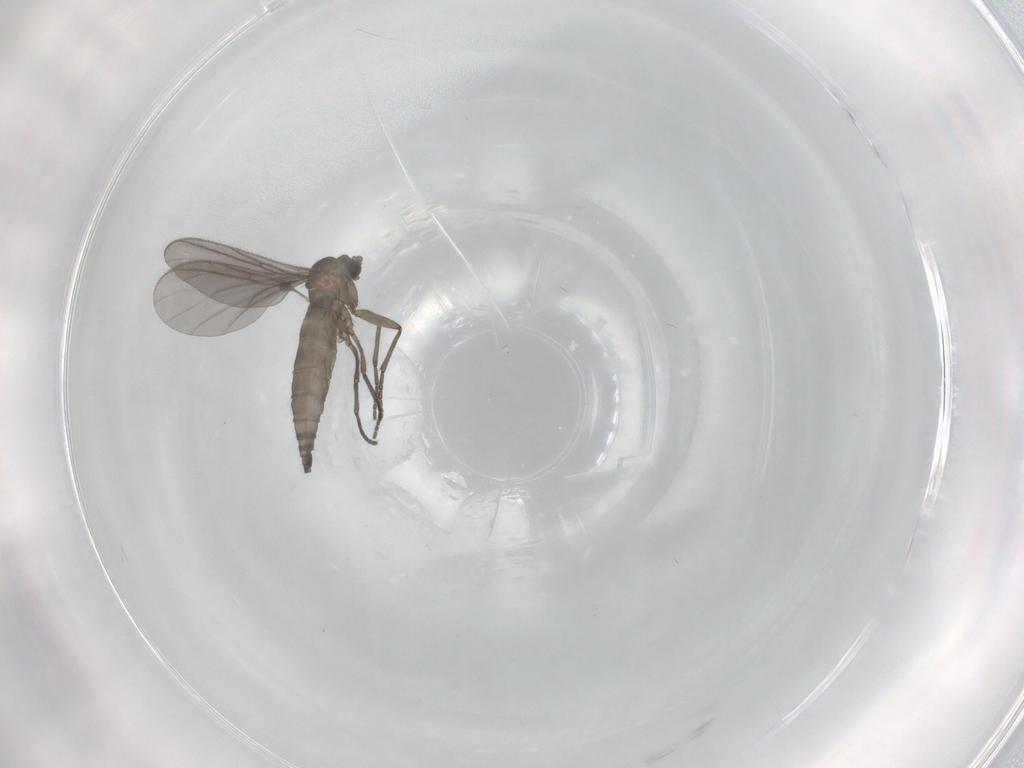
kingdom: Animalia
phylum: Arthropoda
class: Insecta
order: Diptera
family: Sciaridae
